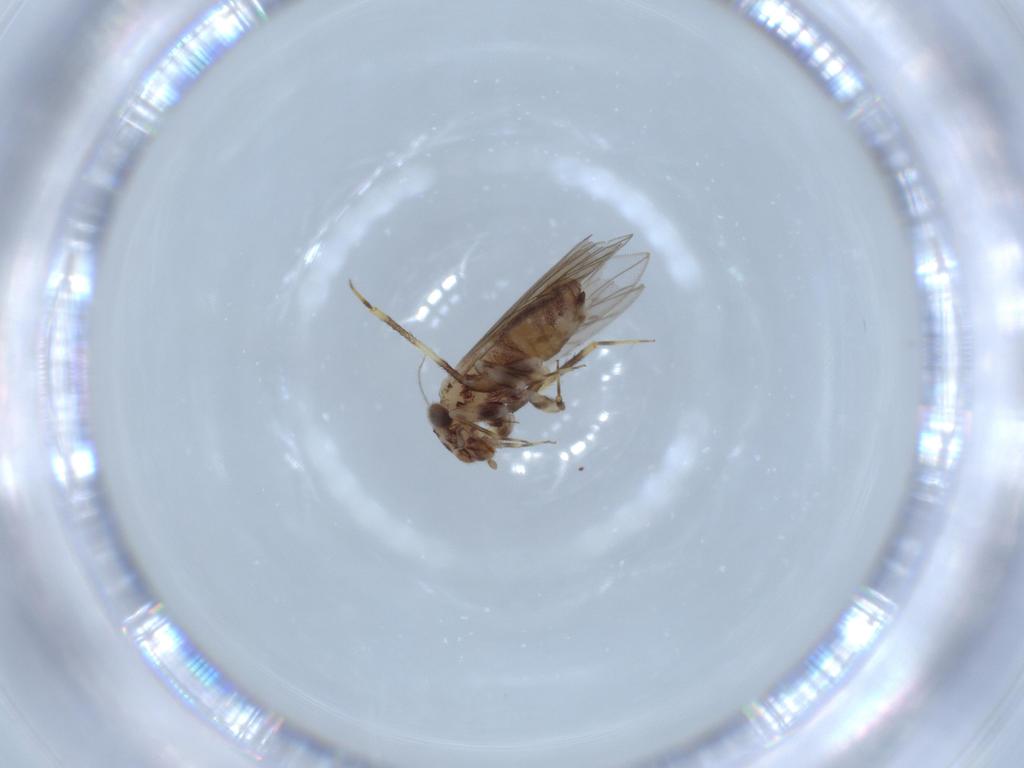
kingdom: Animalia
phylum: Arthropoda
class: Insecta
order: Psocodea
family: Lepidopsocidae
